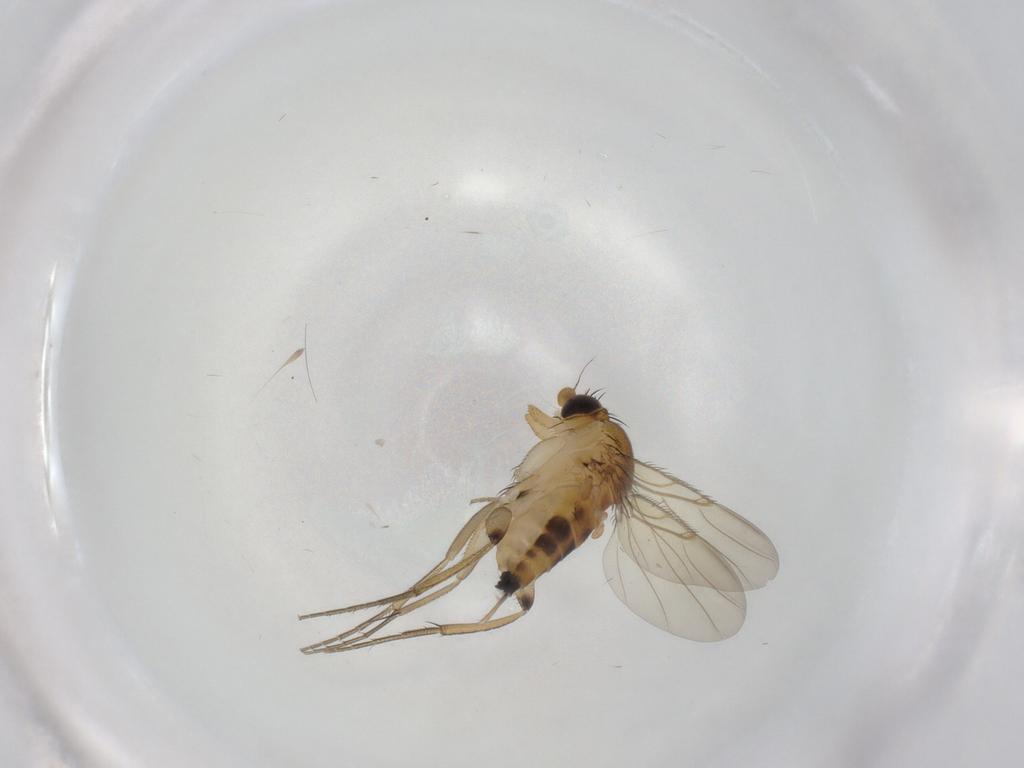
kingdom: Animalia
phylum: Arthropoda
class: Insecta
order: Diptera
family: Phoridae
